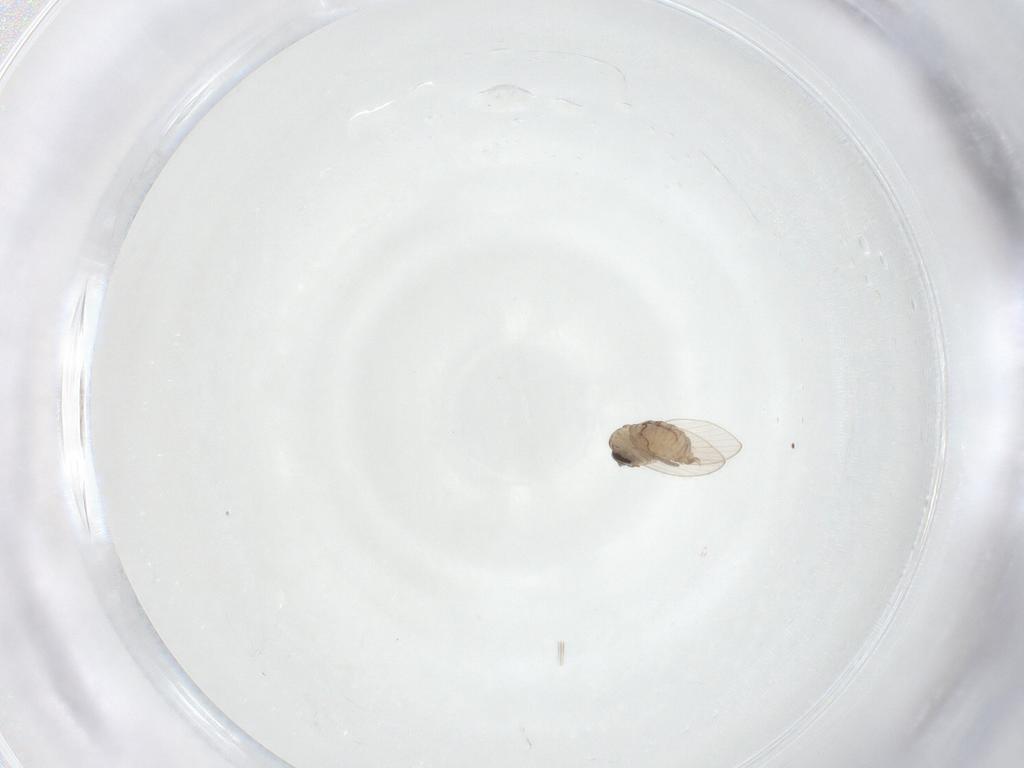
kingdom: Animalia
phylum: Arthropoda
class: Insecta
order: Diptera
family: Psychodidae
